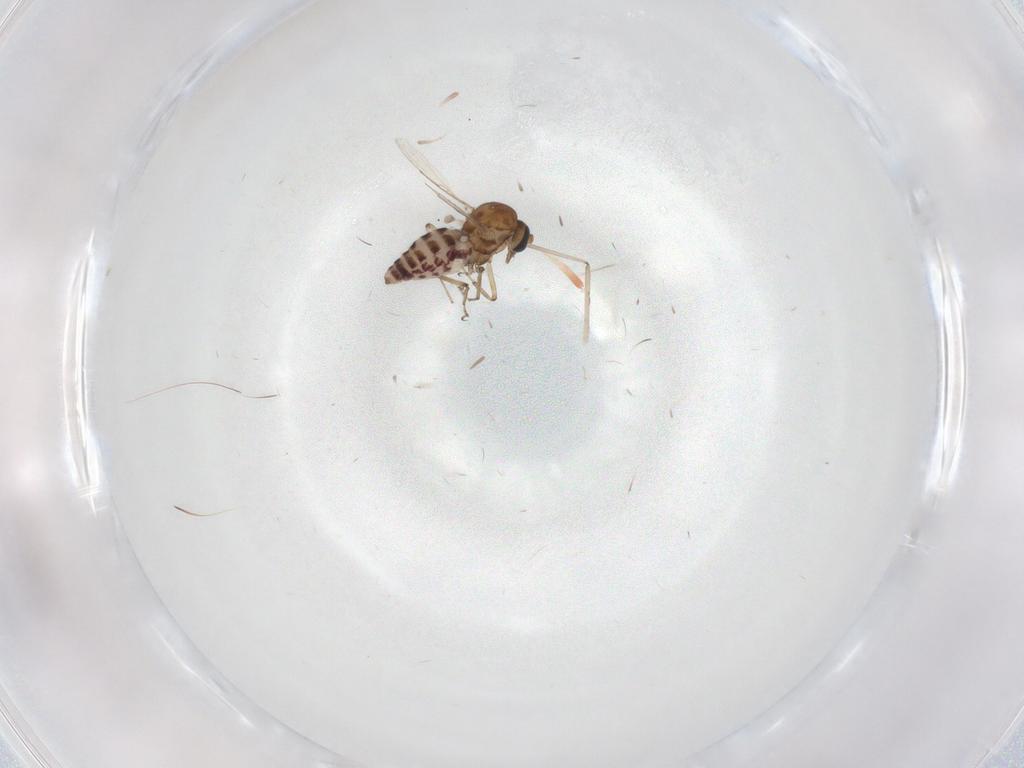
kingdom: Animalia
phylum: Arthropoda
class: Insecta
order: Diptera
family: Ceratopogonidae
